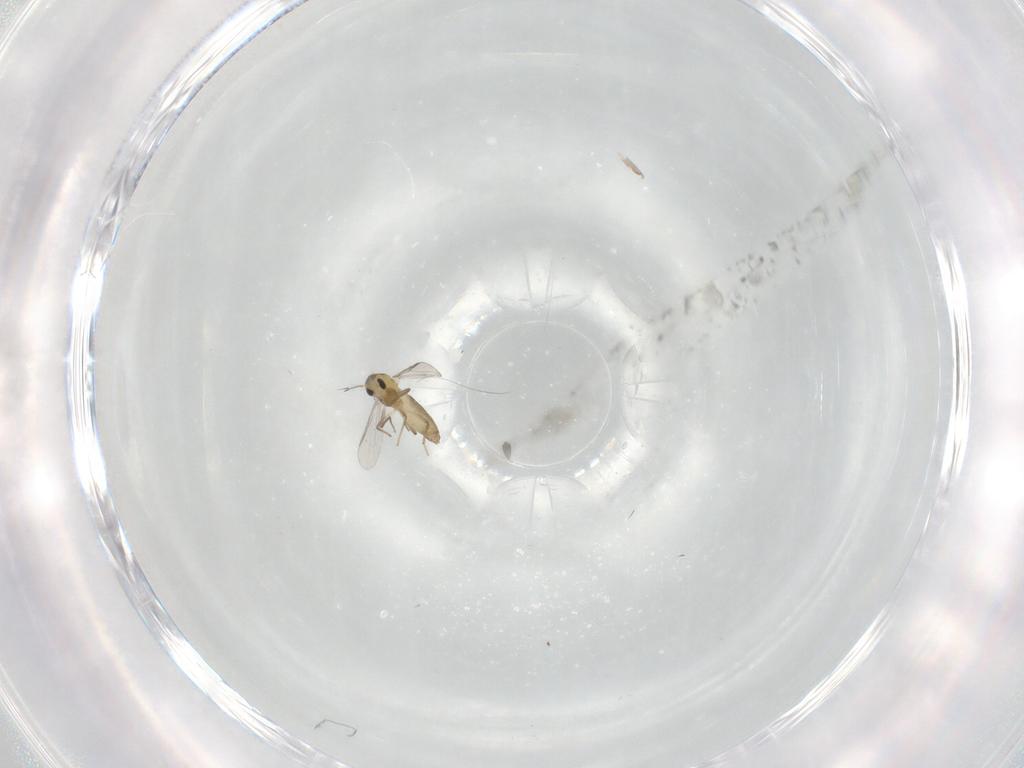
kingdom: Animalia
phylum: Arthropoda
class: Insecta
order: Diptera
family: Chironomidae
